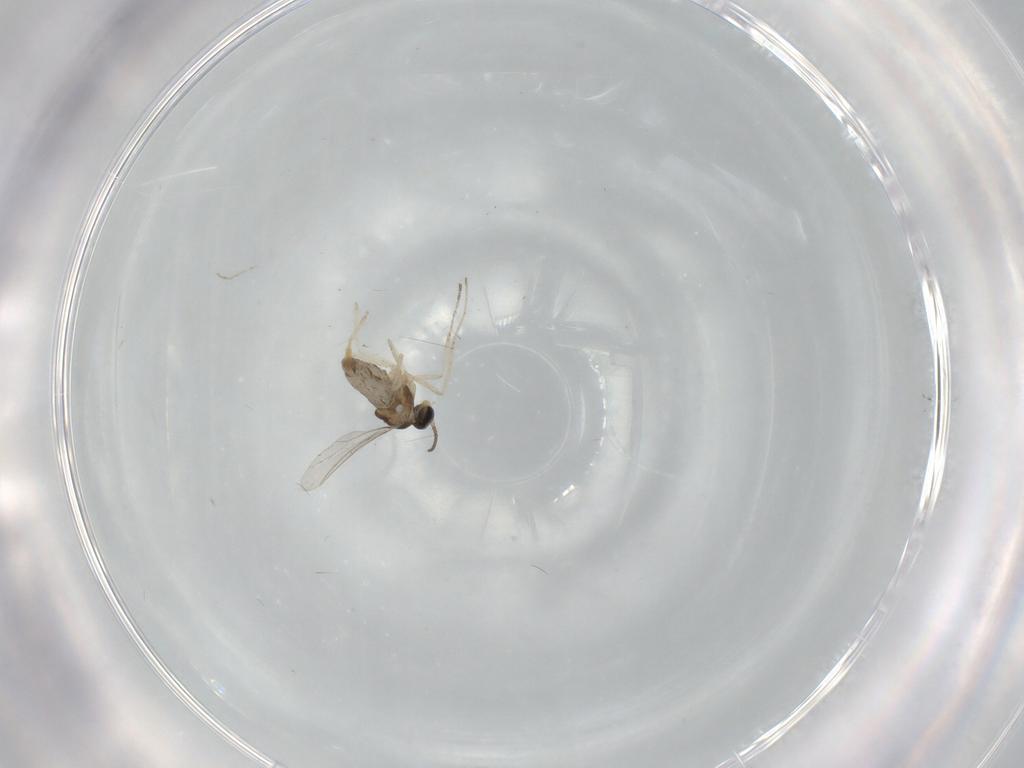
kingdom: Animalia
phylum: Arthropoda
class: Insecta
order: Diptera
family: Cecidomyiidae
